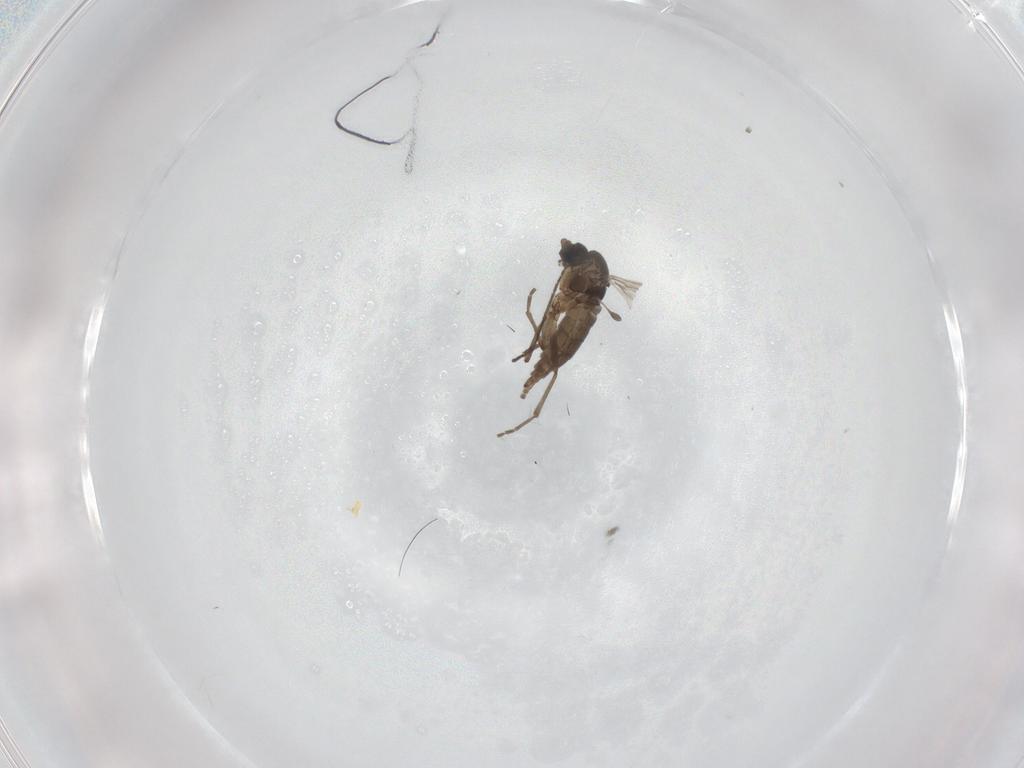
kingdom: Animalia
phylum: Arthropoda
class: Insecta
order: Diptera
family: Sciaridae
